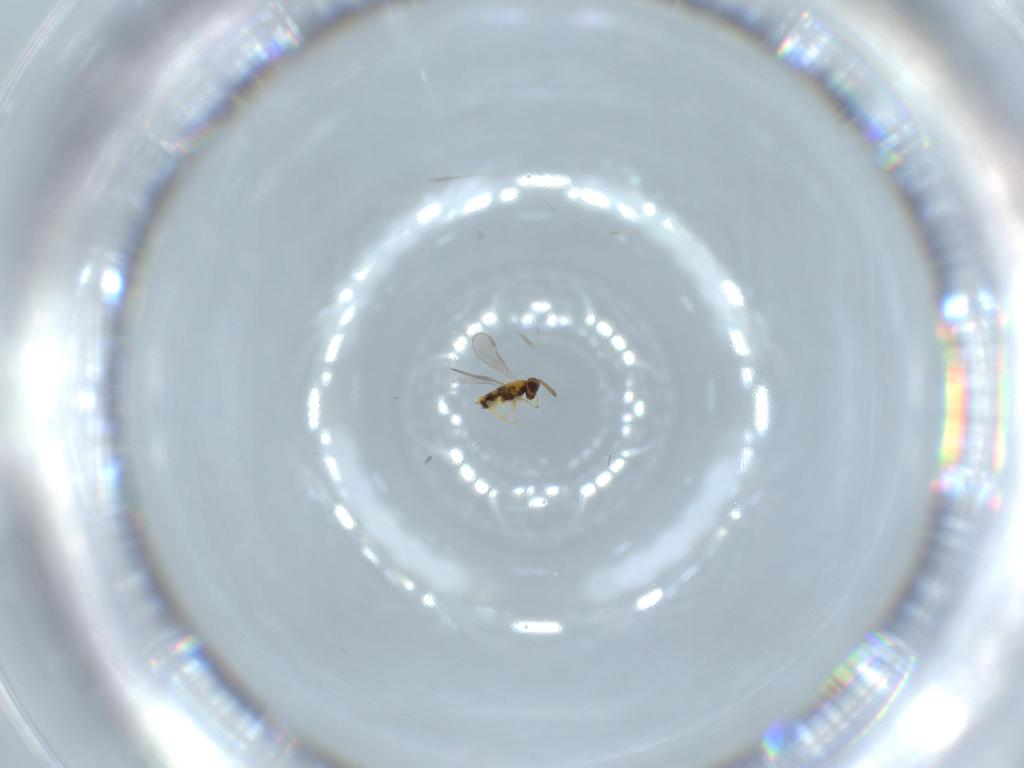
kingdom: Animalia
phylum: Arthropoda
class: Insecta
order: Hymenoptera
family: Aphelinidae
